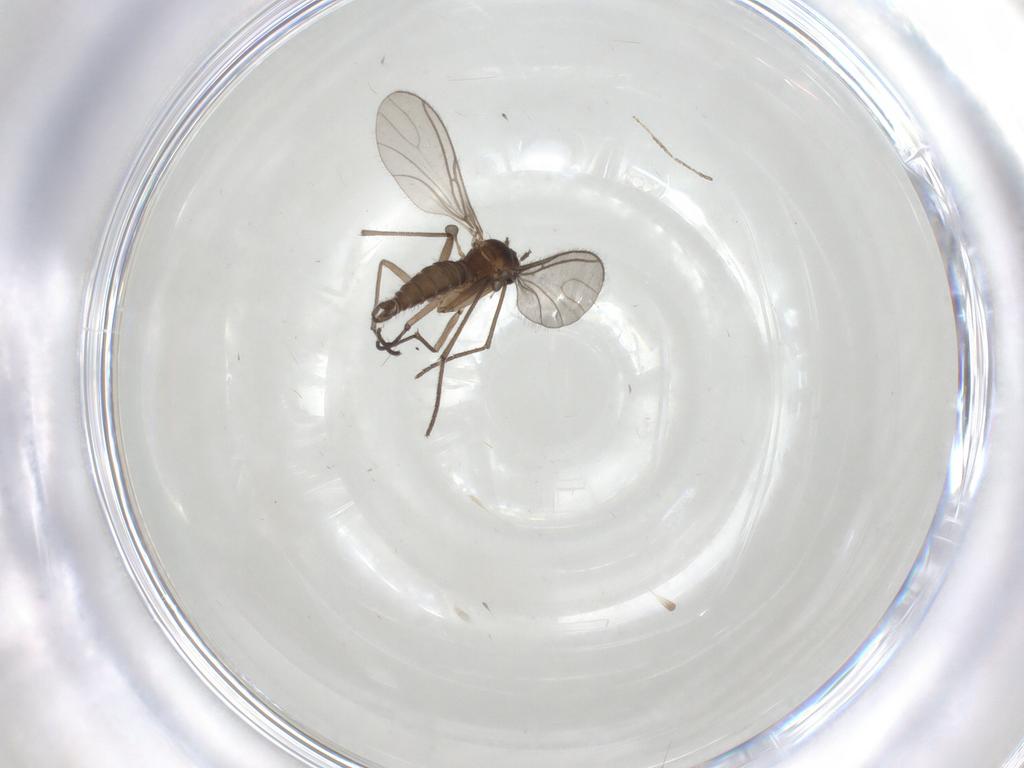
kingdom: Animalia
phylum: Arthropoda
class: Insecta
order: Diptera
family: Sciaridae
